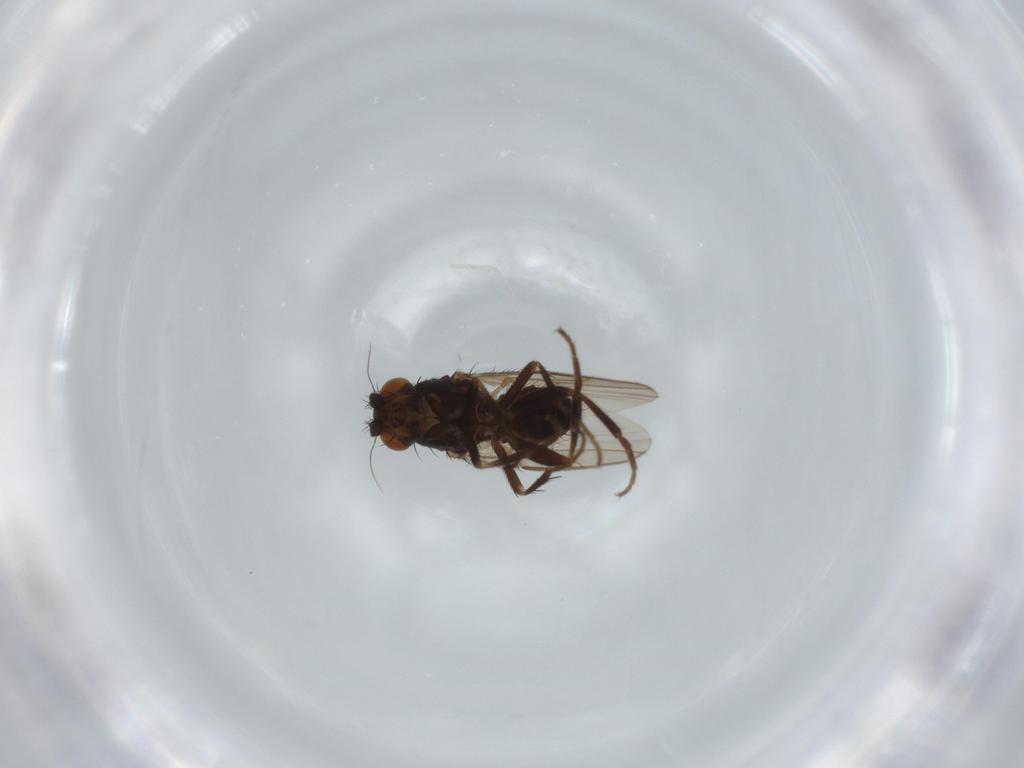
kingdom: Animalia
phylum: Arthropoda
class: Insecta
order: Diptera
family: Sphaeroceridae
